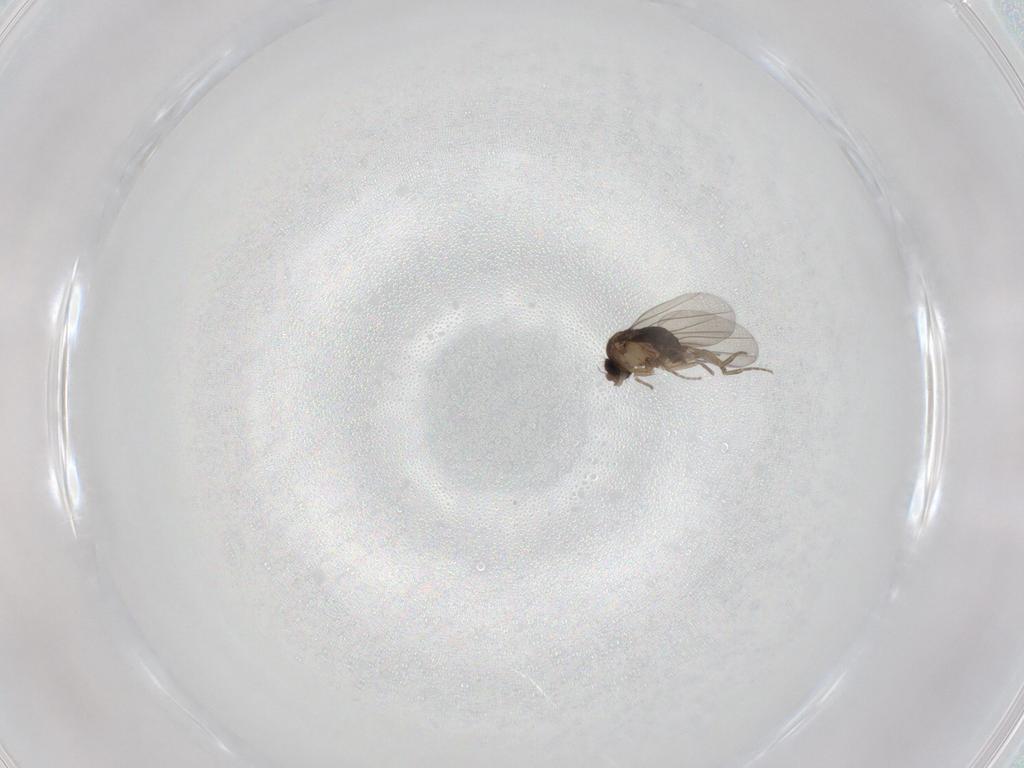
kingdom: Animalia
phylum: Arthropoda
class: Insecta
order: Diptera
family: Phoridae
